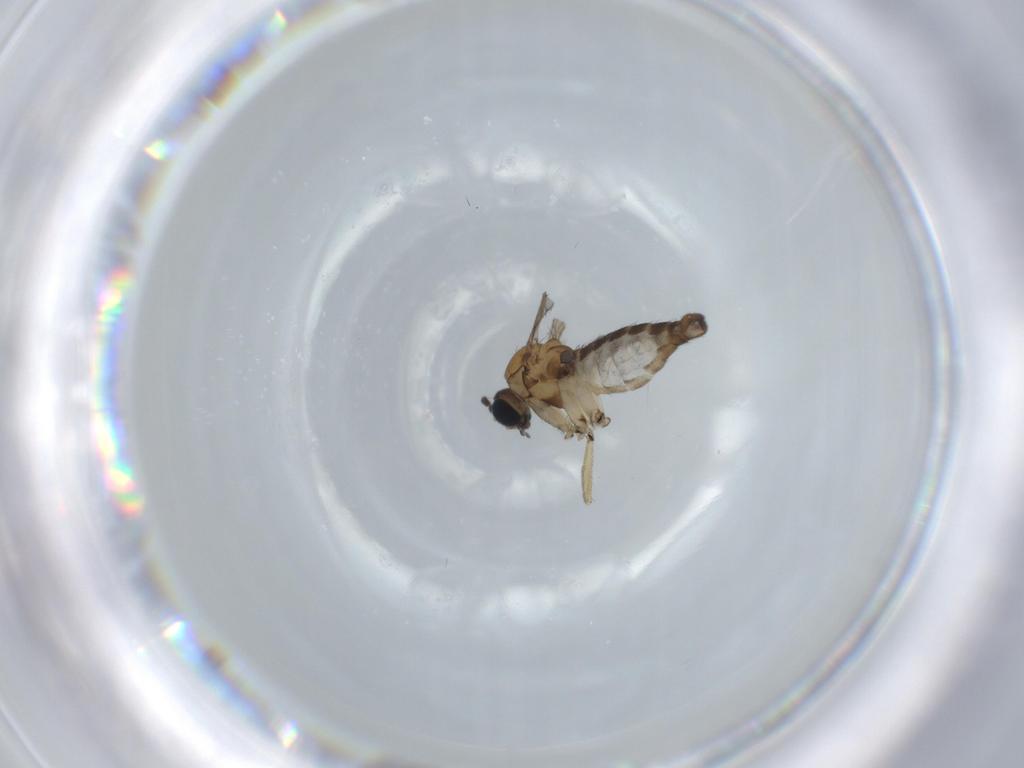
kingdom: Animalia
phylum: Arthropoda
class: Insecta
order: Diptera
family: Sciaridae
